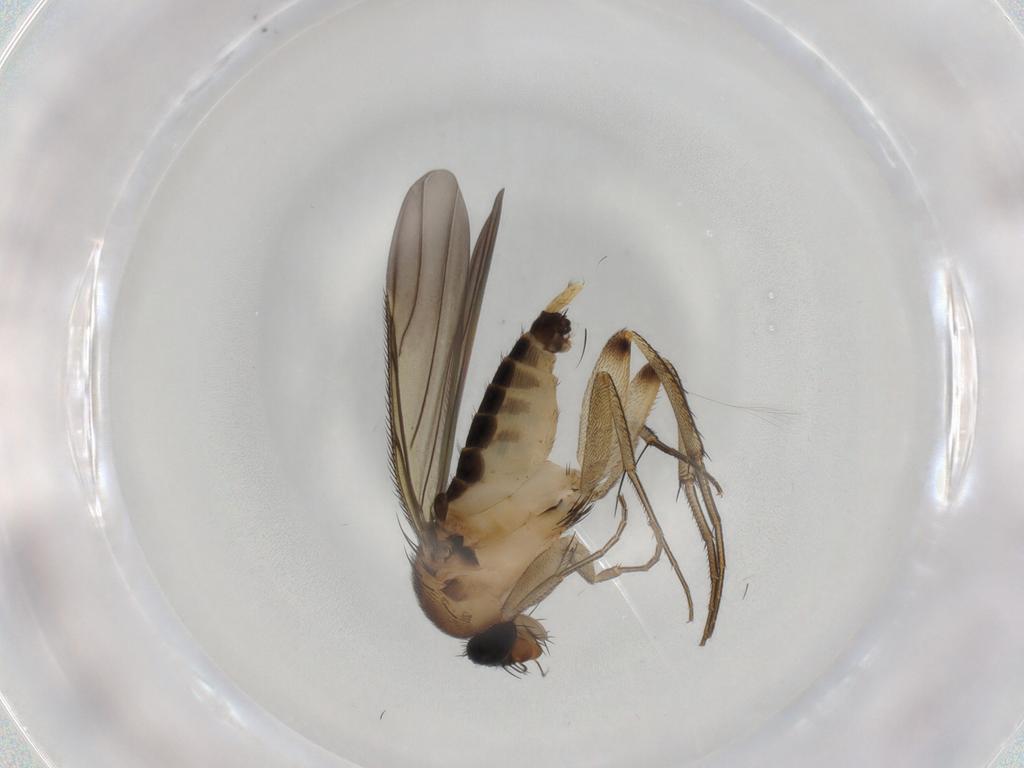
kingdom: Animalia
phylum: Arthropoda
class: Insecta
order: Diptera
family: Phoridae
